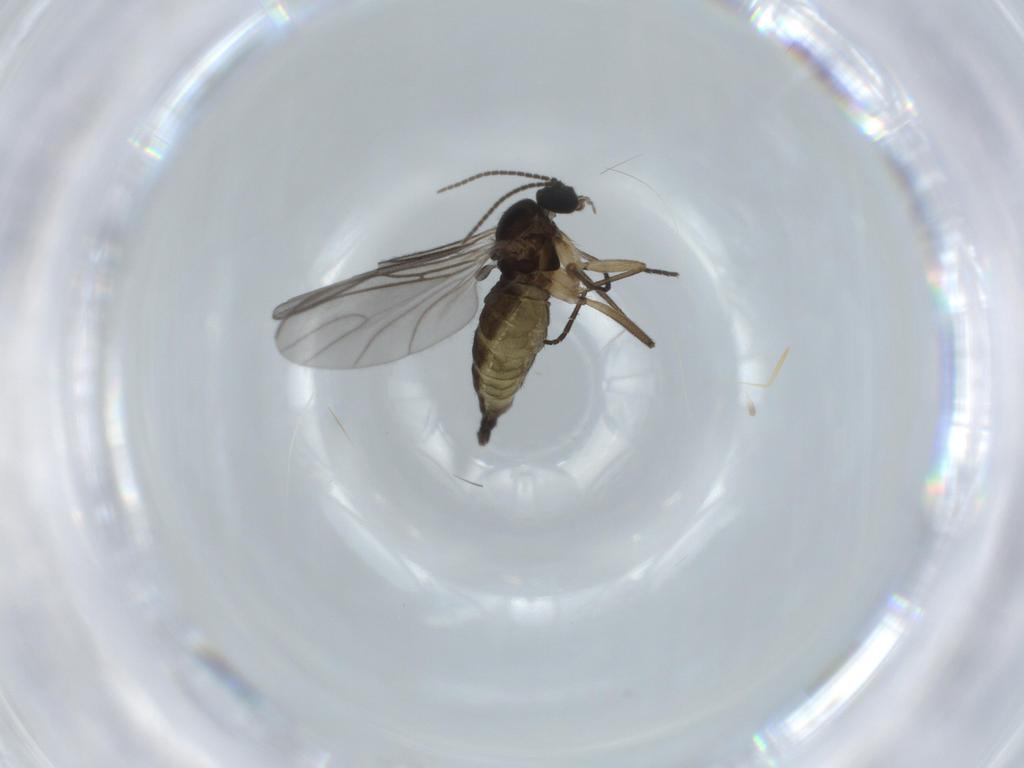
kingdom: Animalia
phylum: Arthropoda
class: Insecta
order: Diptera
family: Sciaridae
